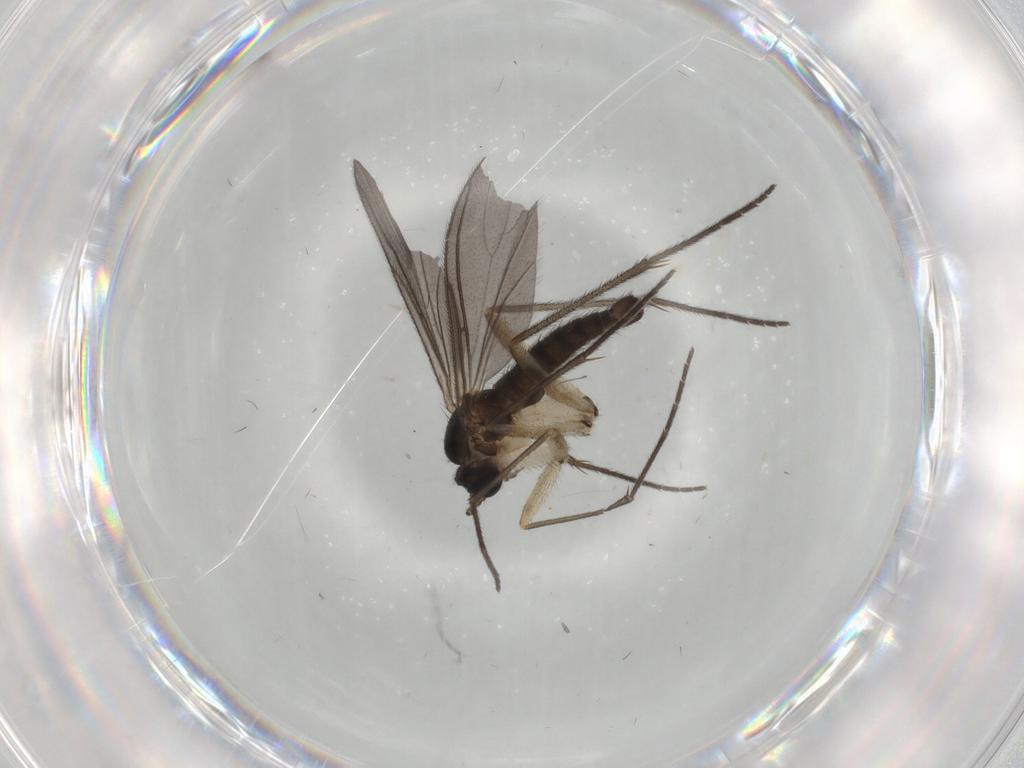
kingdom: Animalia
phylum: Arthropoda
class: Insecta
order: Diptera
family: Sciaridae
